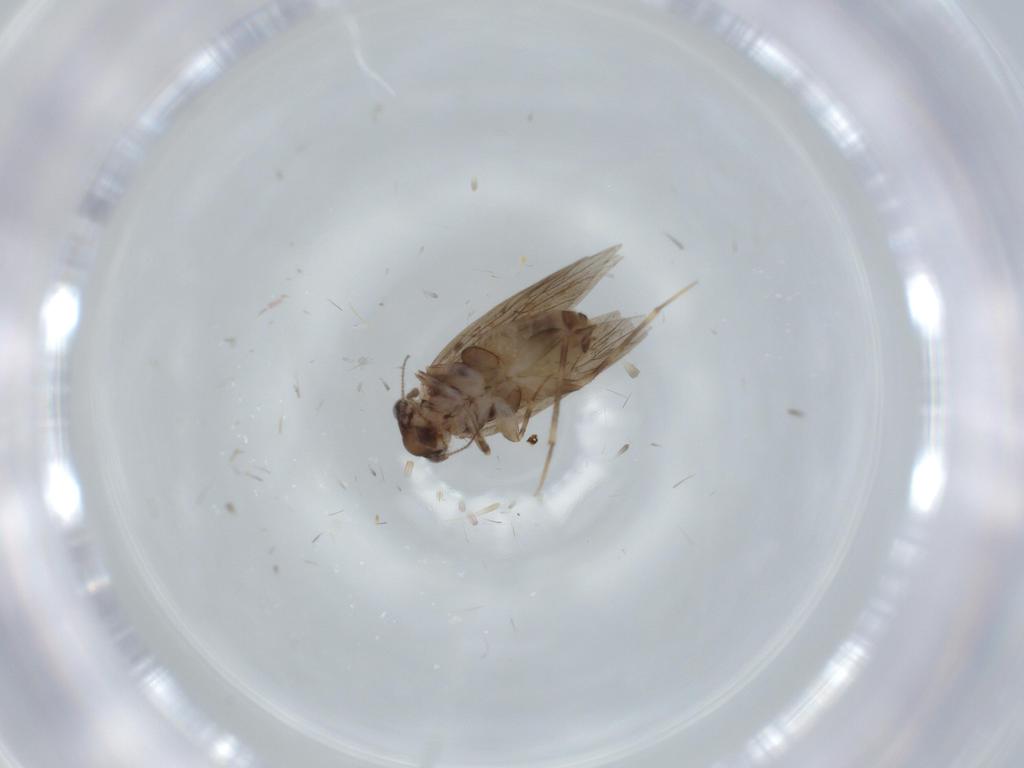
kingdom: Animalia
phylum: Arthropoda
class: Insecta
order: Psocodea
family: Lepidopsocidae
